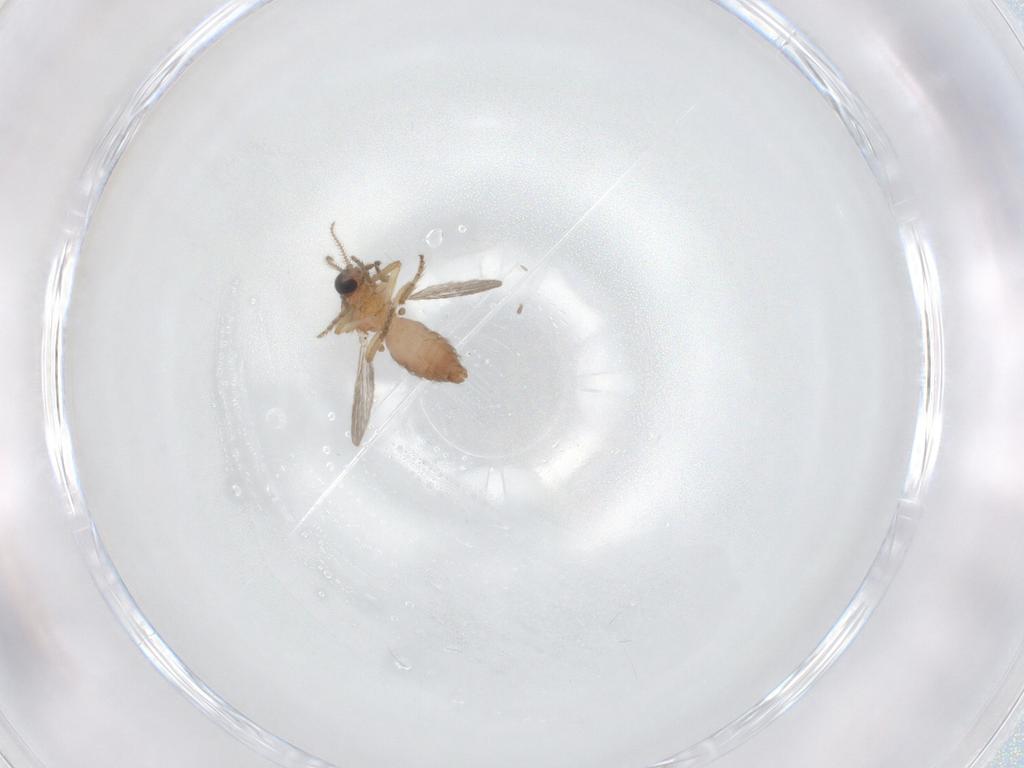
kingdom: Animalia
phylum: Arthropoda
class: Insecta
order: Diptera
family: Ceratopogonidae
